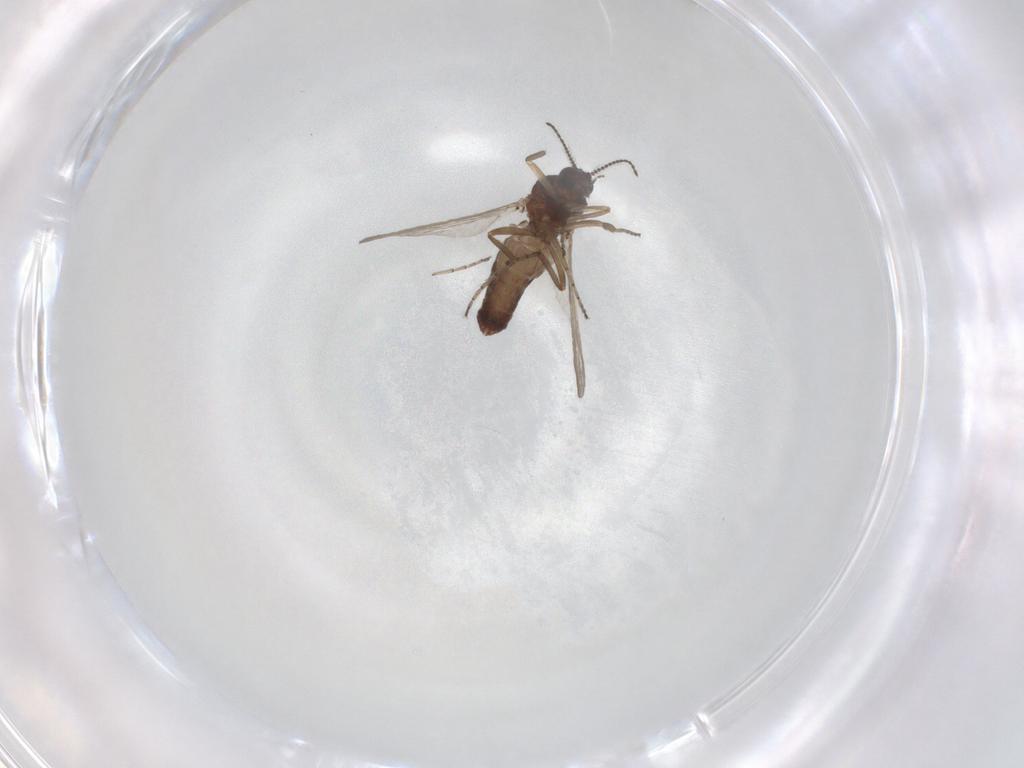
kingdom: Animalia
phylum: Arthropoda
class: Insecta
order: Diptera
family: Ceratopogonidae
